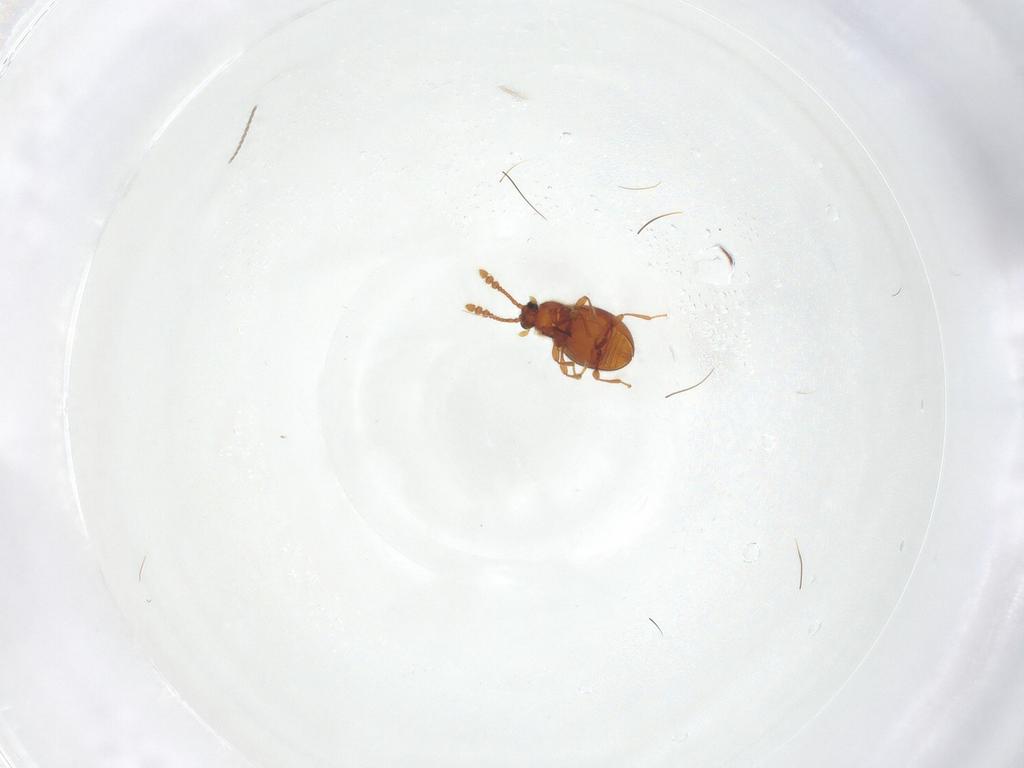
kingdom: Animalia
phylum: Arthropoda
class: Insecta
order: Coleoptera
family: Staphylinidae
